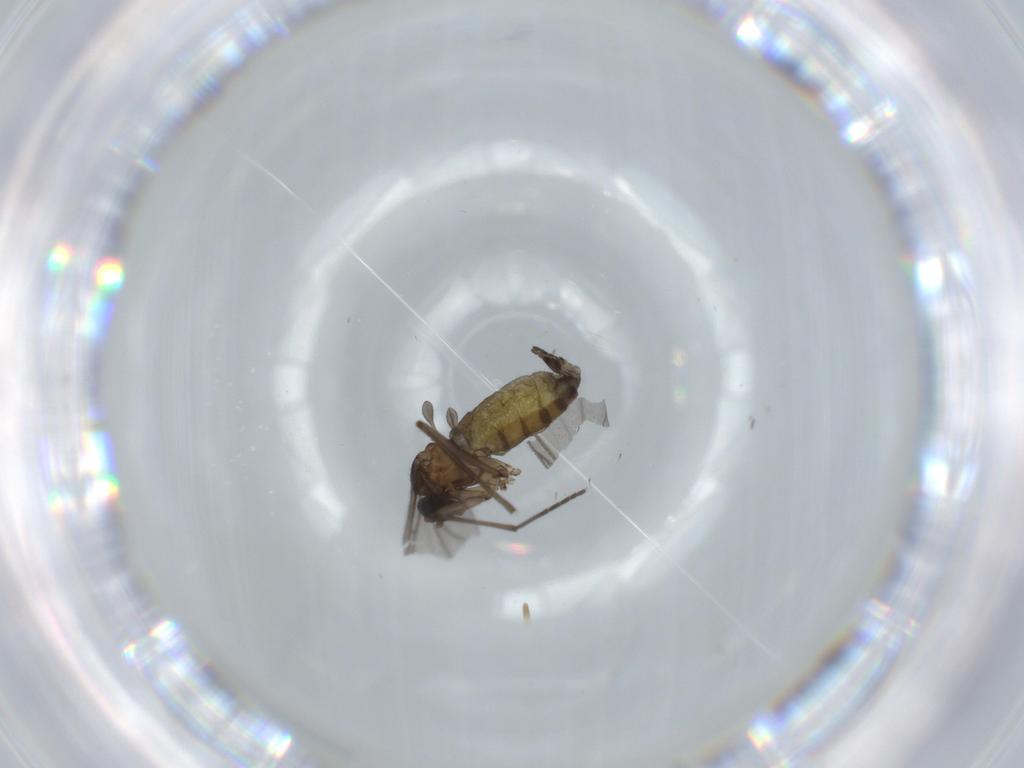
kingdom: Animalia
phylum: Arthropoda
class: Insecta
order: Diptera
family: Sciaridae
